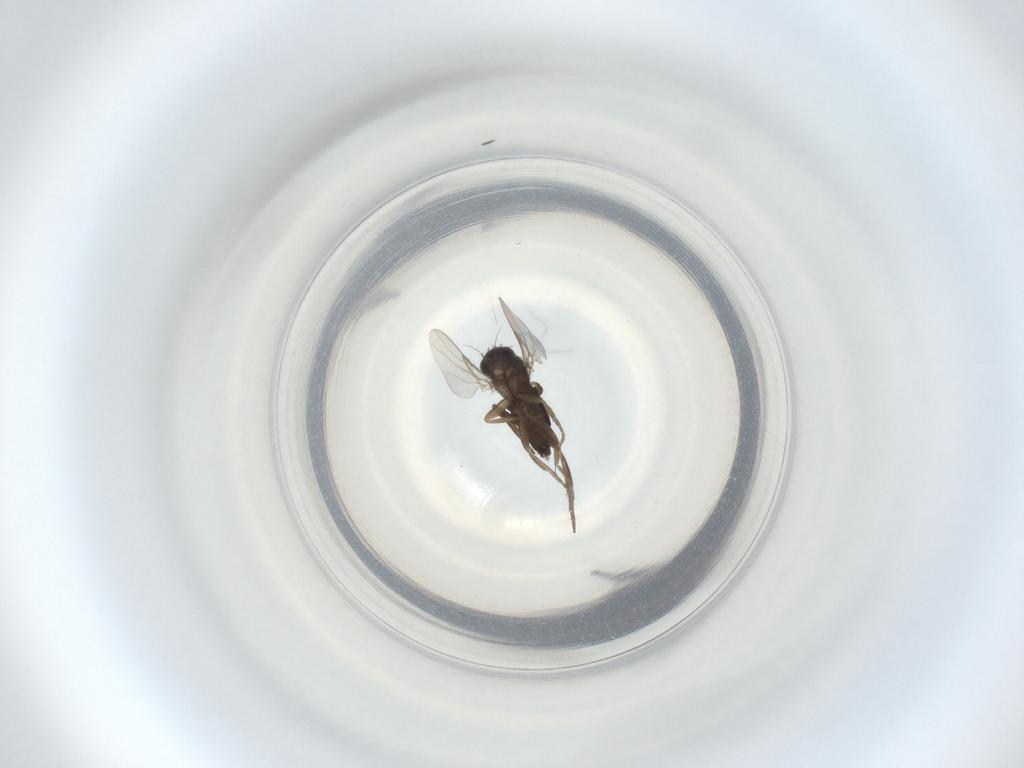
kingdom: Animalia
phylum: Arthropoda
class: Insecta
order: Diptera
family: Phoridae
